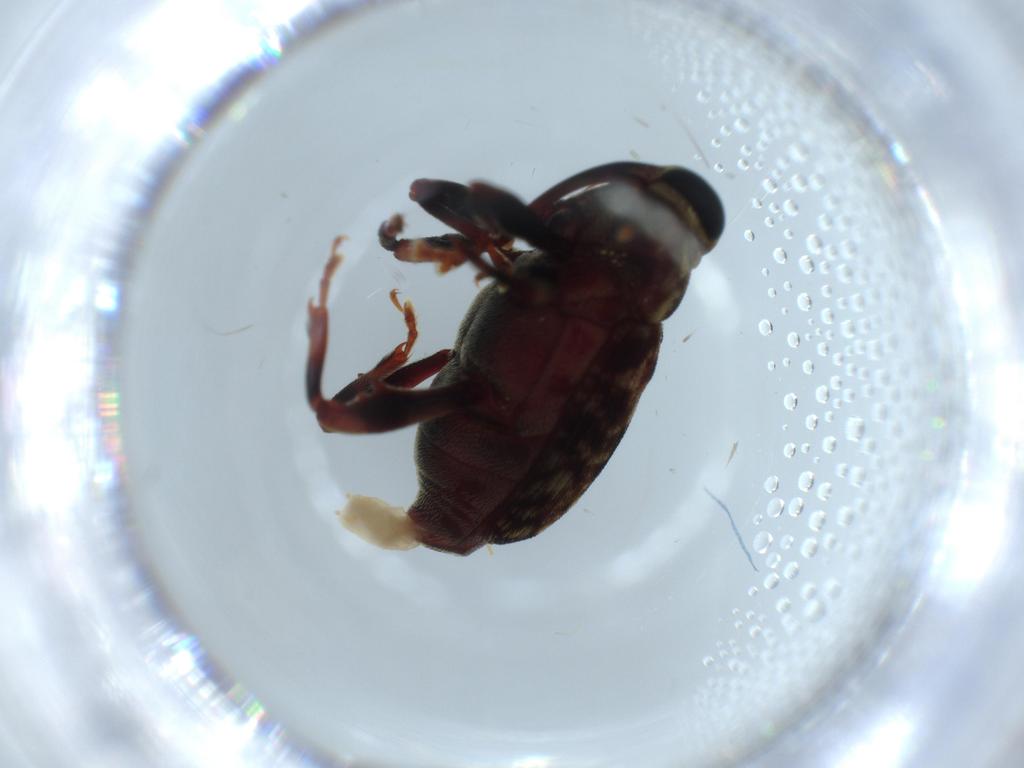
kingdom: Animalia
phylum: Arthropoda
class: Insecta
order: Coleoptera
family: Curculionidae
